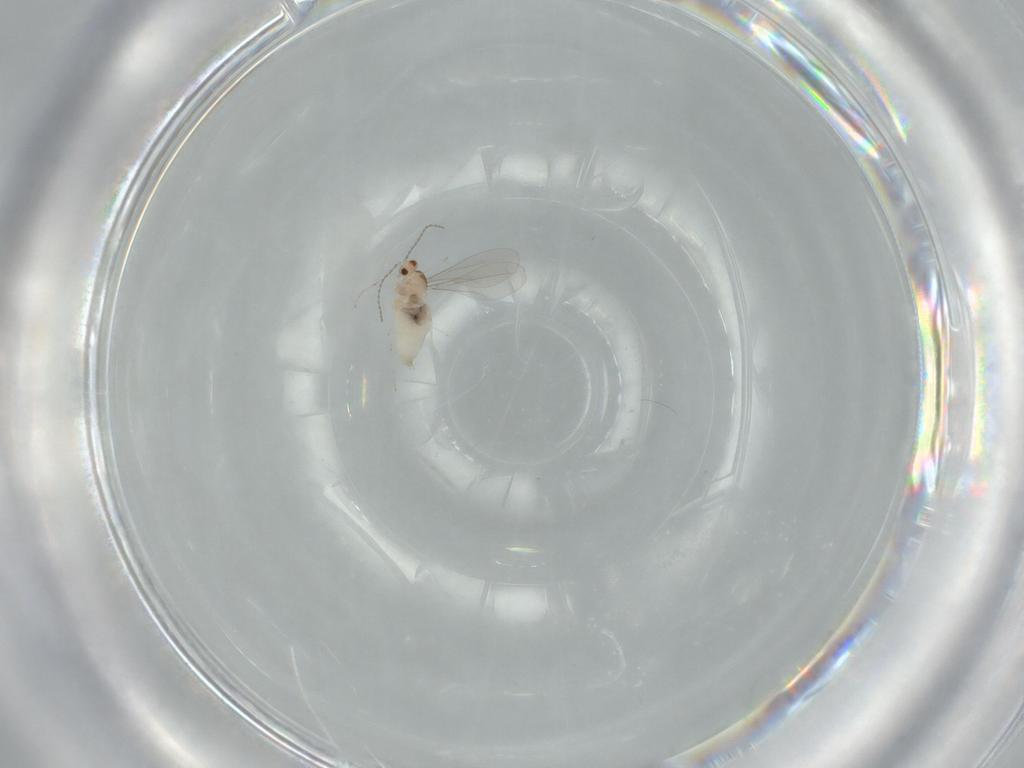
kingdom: Animalia
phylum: Arthropoda
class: Insecta
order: Diptera
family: Cecidomyiidae
